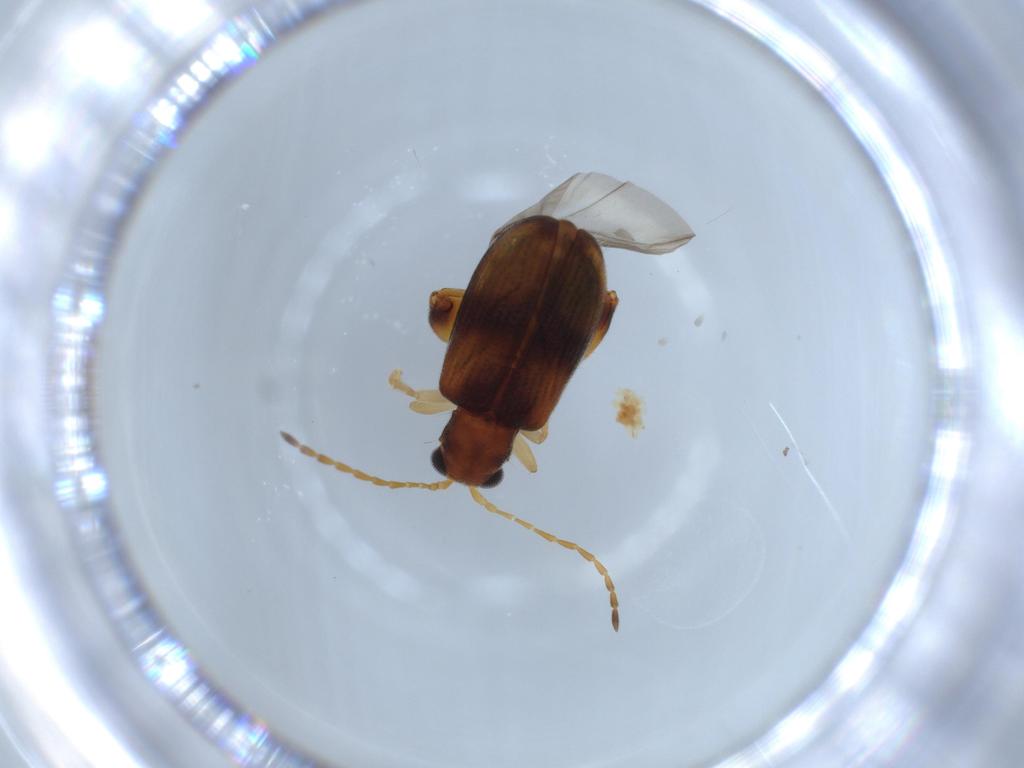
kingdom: Animalia
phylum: Arthropoda
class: Insecta
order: Coleoptera
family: Chrysomelidae
